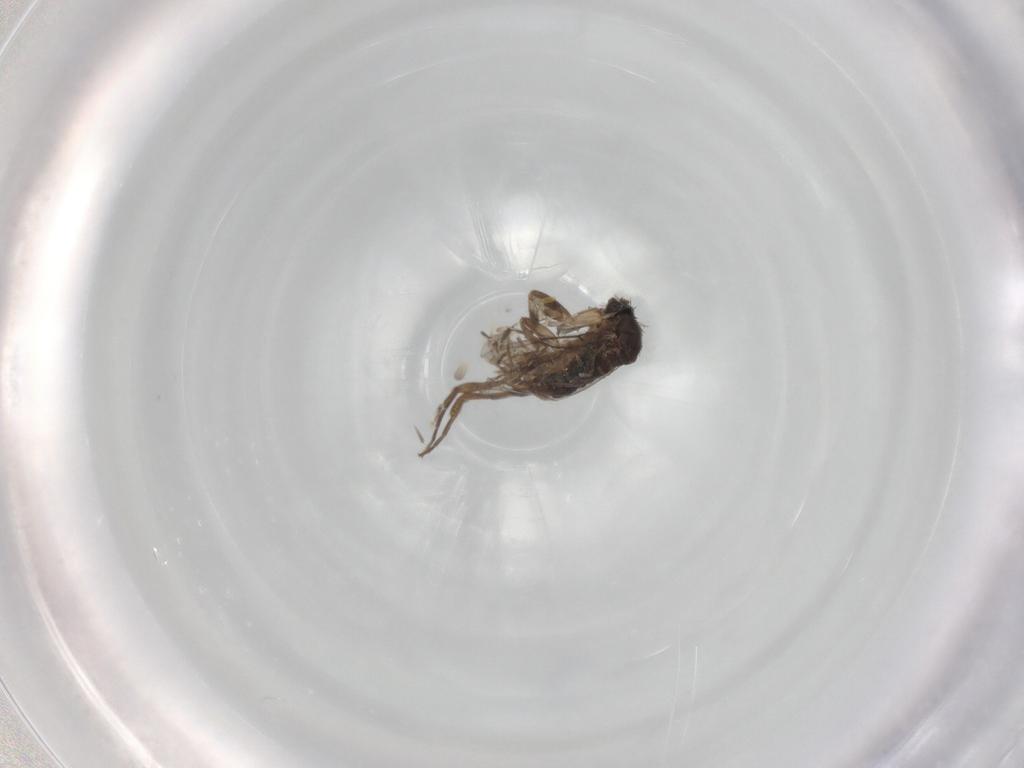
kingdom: Animalia
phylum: Arthropoda
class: Insecta
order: Diptera
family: Phoridae
